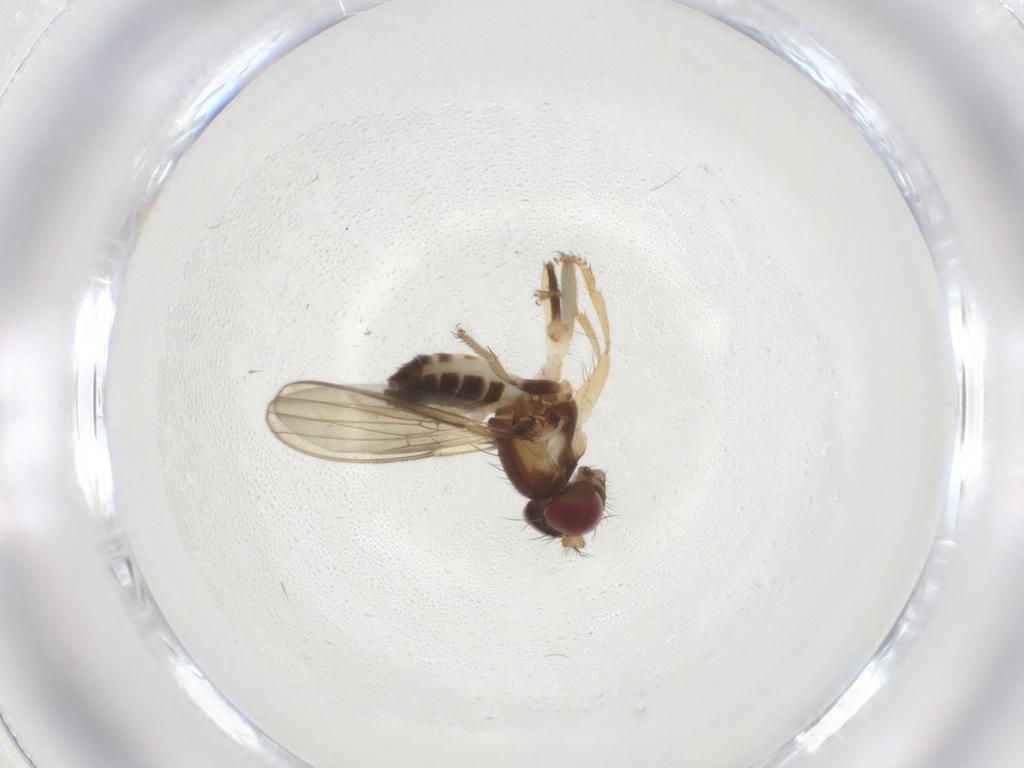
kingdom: Animalia
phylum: Arthropoda
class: Insecta
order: Diptera
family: Periscelididae
